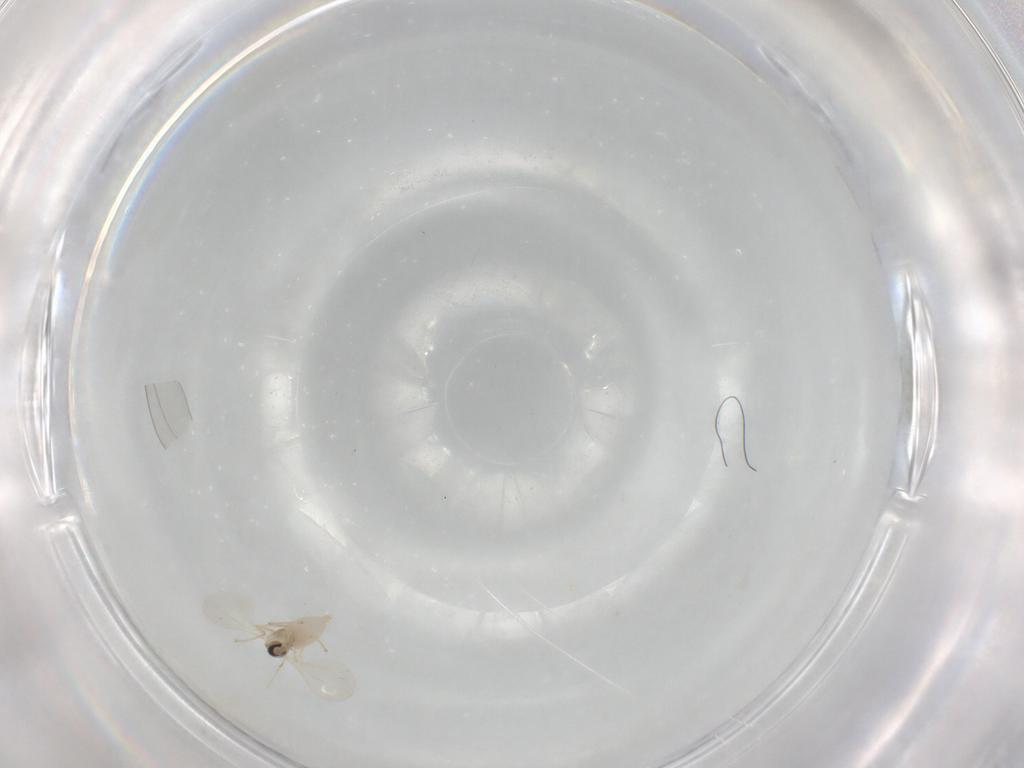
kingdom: Animalia
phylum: Arthropoda
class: Insecta
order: Diptera
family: Cecidomyiidae
